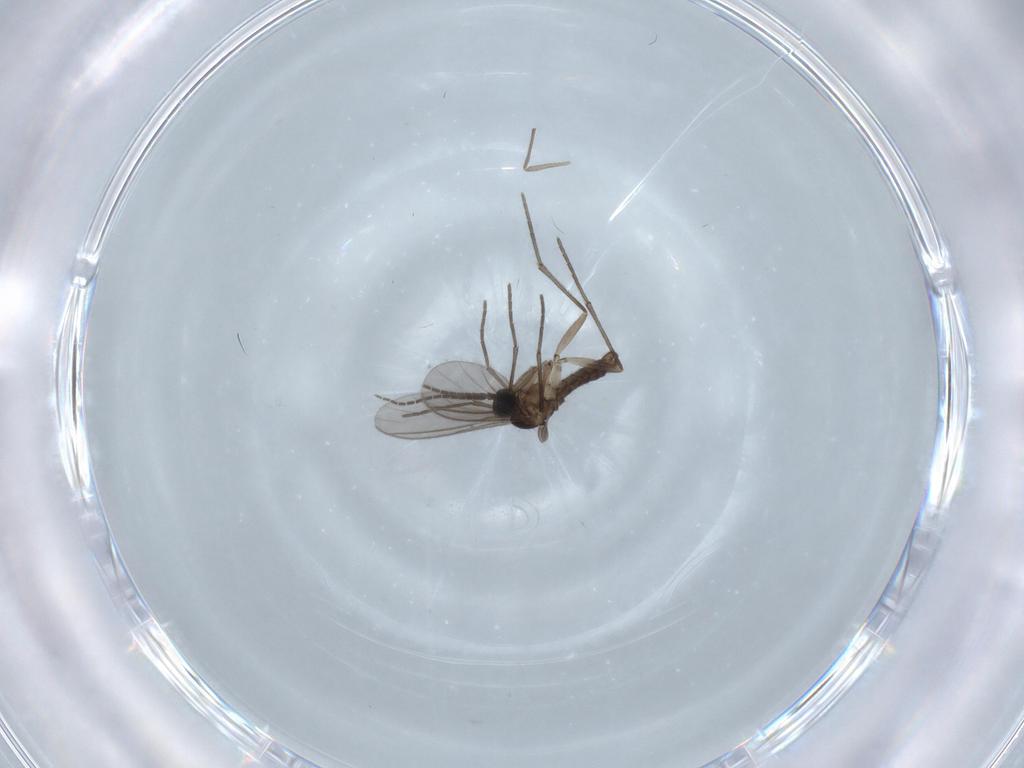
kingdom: Animalia
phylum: Arthropoda
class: Insecta
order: Diptera
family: Sciaridae
